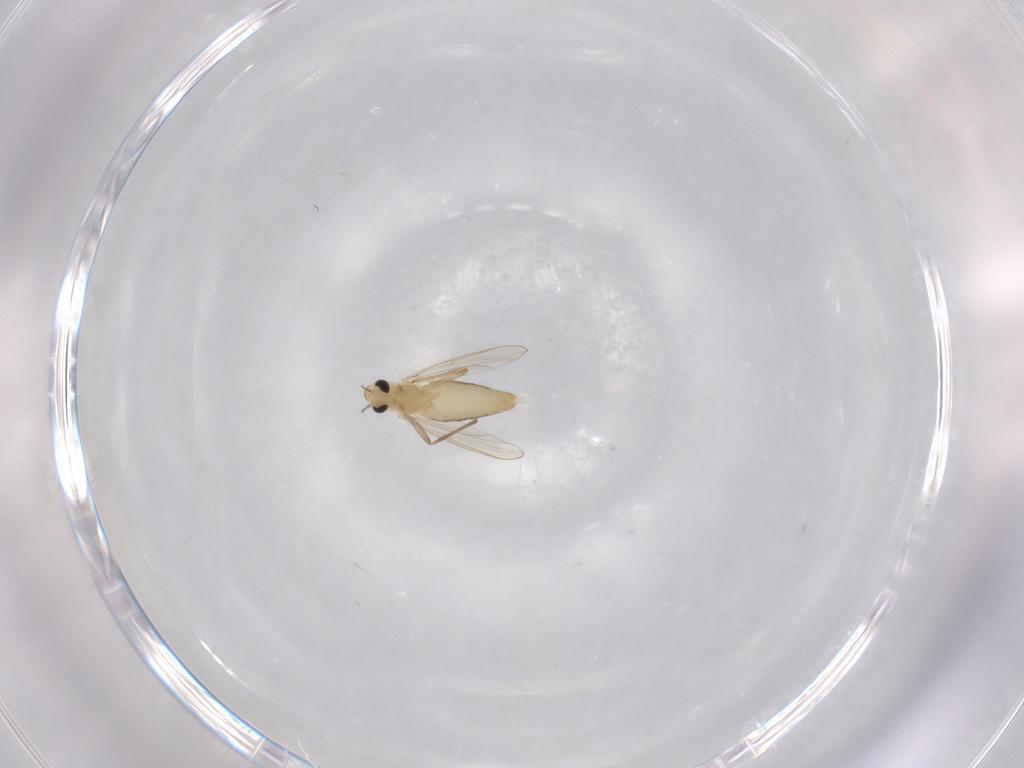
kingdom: Animalia
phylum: Arthropoda
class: Insecta
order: Diptera
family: Chironomidae
